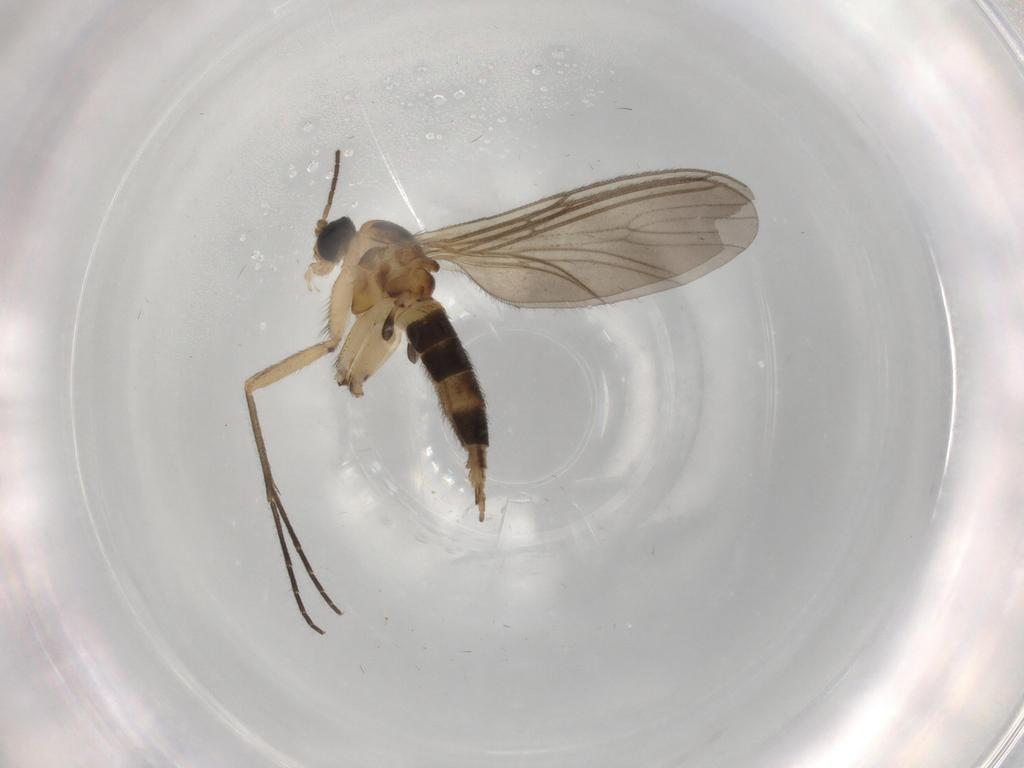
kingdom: Animalia
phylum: Arthropoda
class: Insecta
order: Diptera
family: Sciaridae
